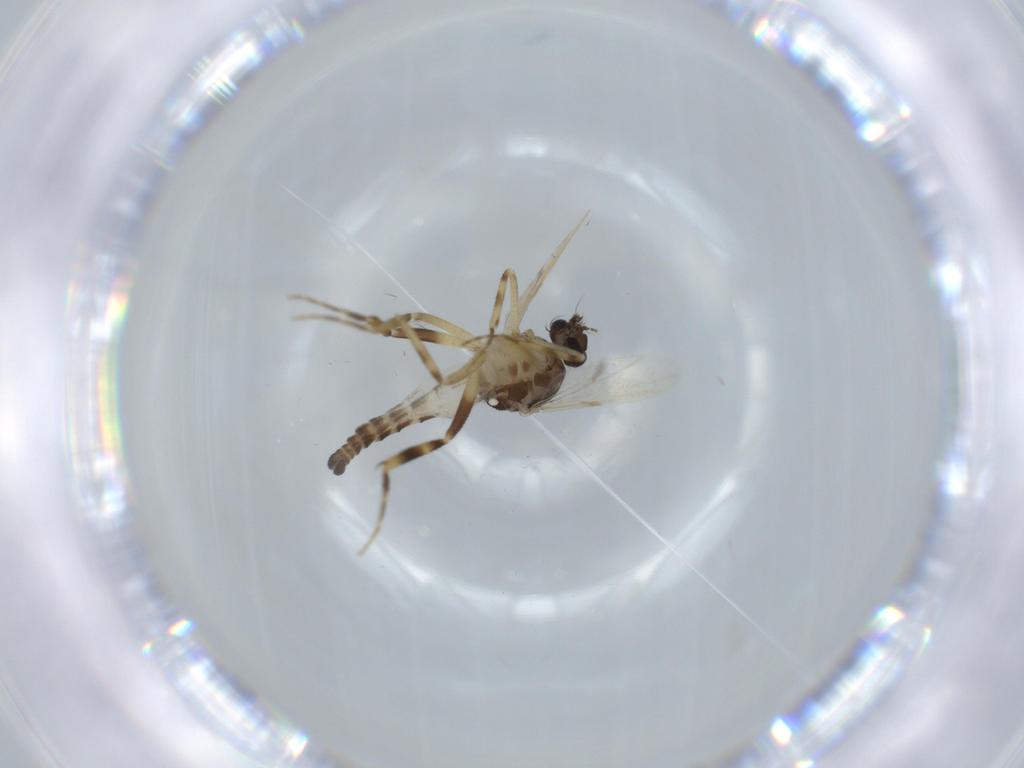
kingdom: Animalia
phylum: Arthropoda
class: Insecta
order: Diptera
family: Ceratopogonidae
